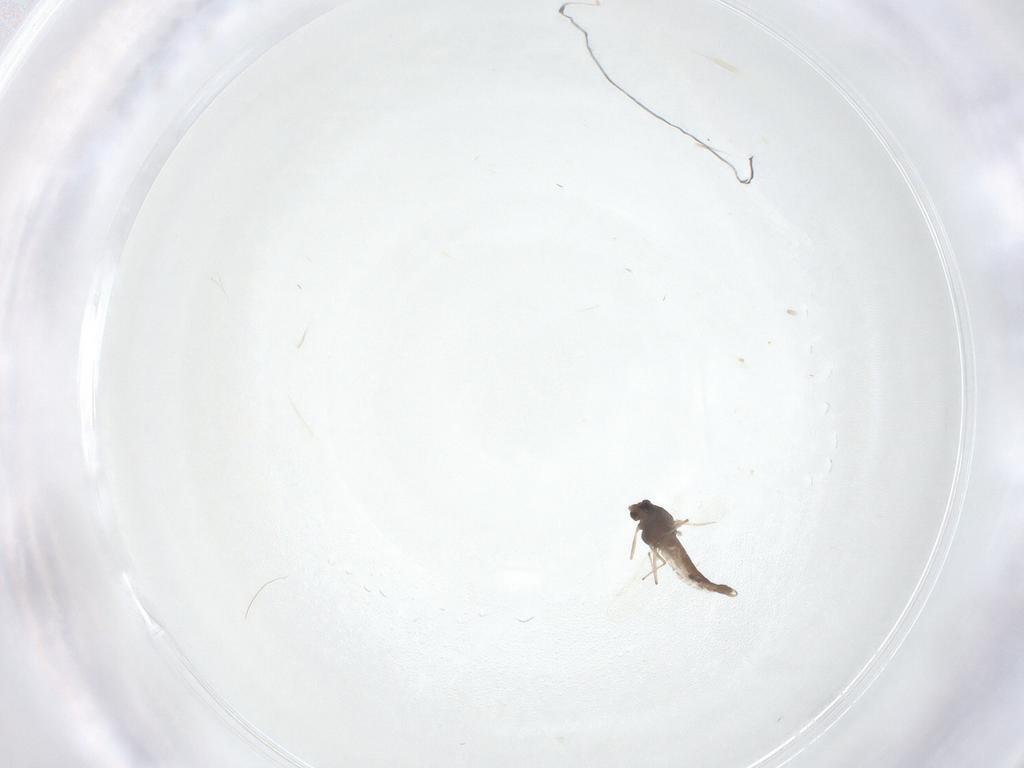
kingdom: Animalia
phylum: Arthropoda
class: Insecta
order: Diptera
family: Chironomidae
